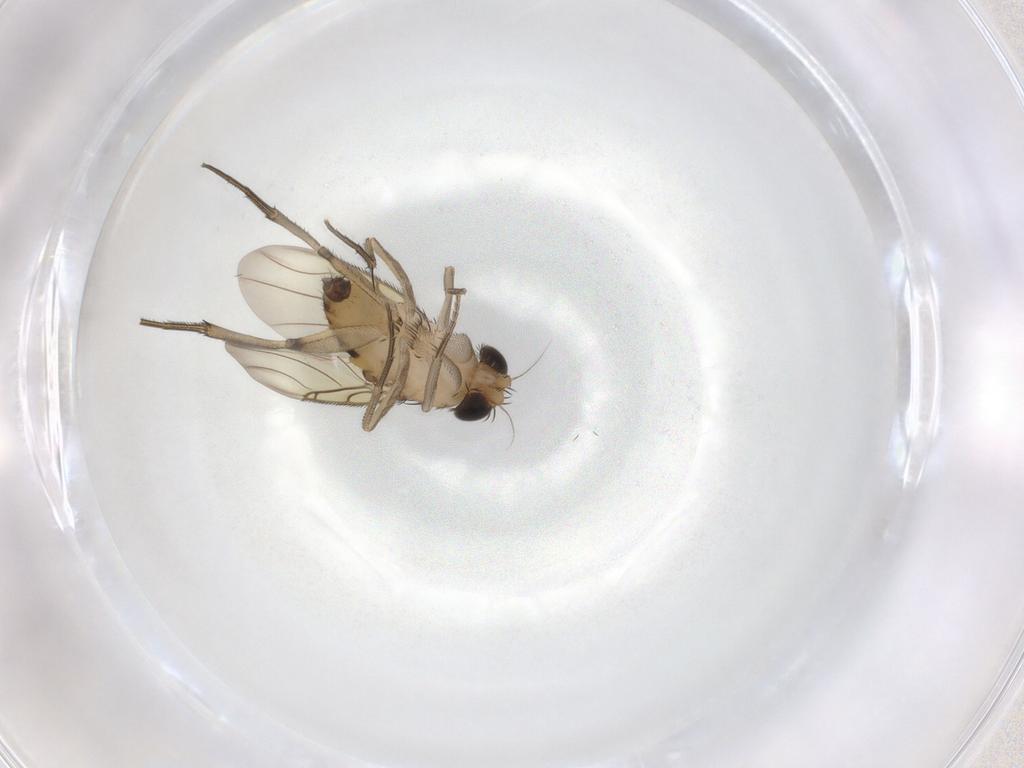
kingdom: Animalia
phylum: Arthropoda
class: Insecta
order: Diptera
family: Phoridae
